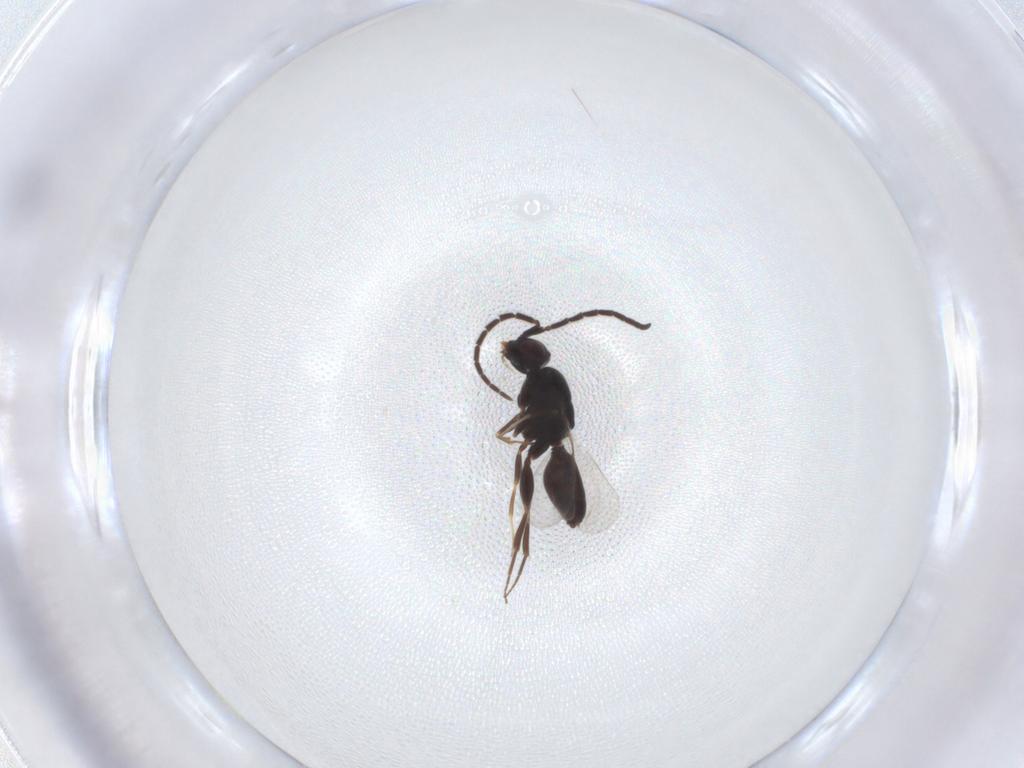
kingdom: Animalia
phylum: Arthropoda
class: Insecta
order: Hymenoptera
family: Megaspilidae
